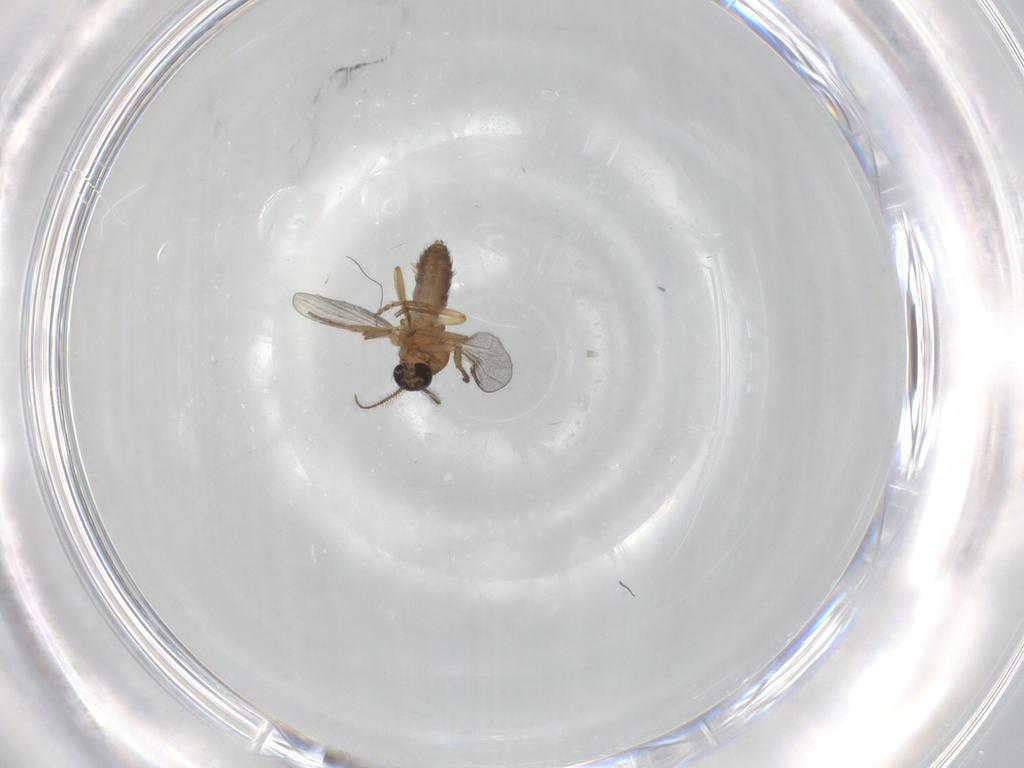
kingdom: Animalia
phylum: Arthropoda
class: Insecta
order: Diptera
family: Ceratopogonidae
